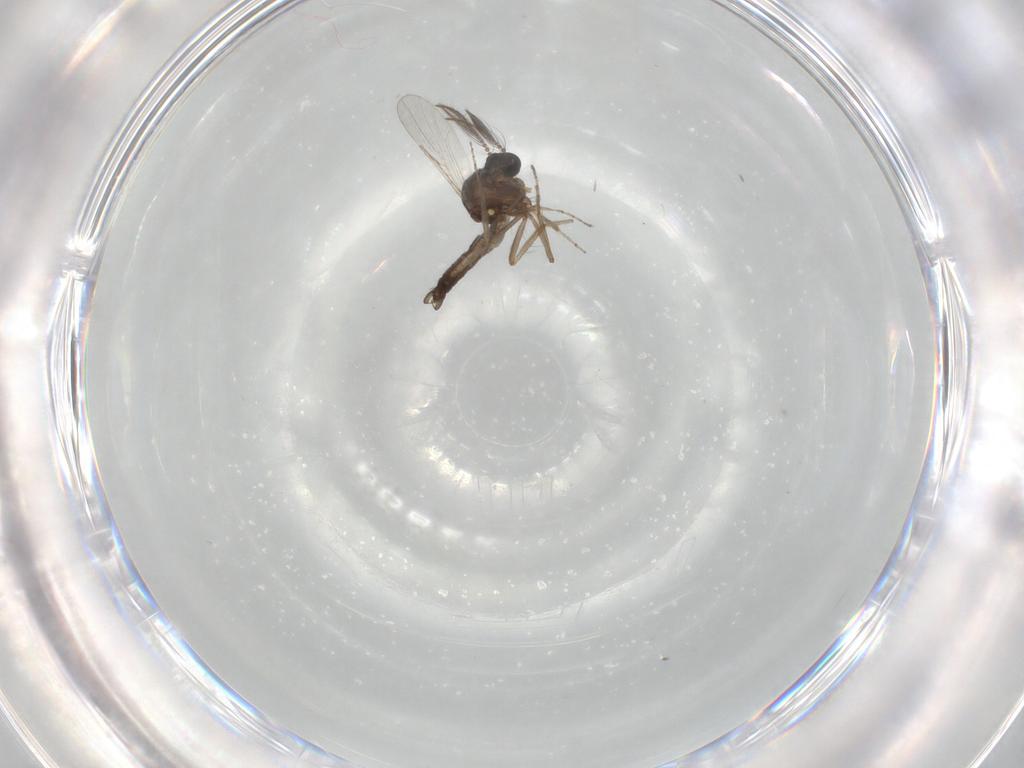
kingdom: Animalia
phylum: Arthropoda
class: Insecta
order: Diptera
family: Ceratopogonidae
